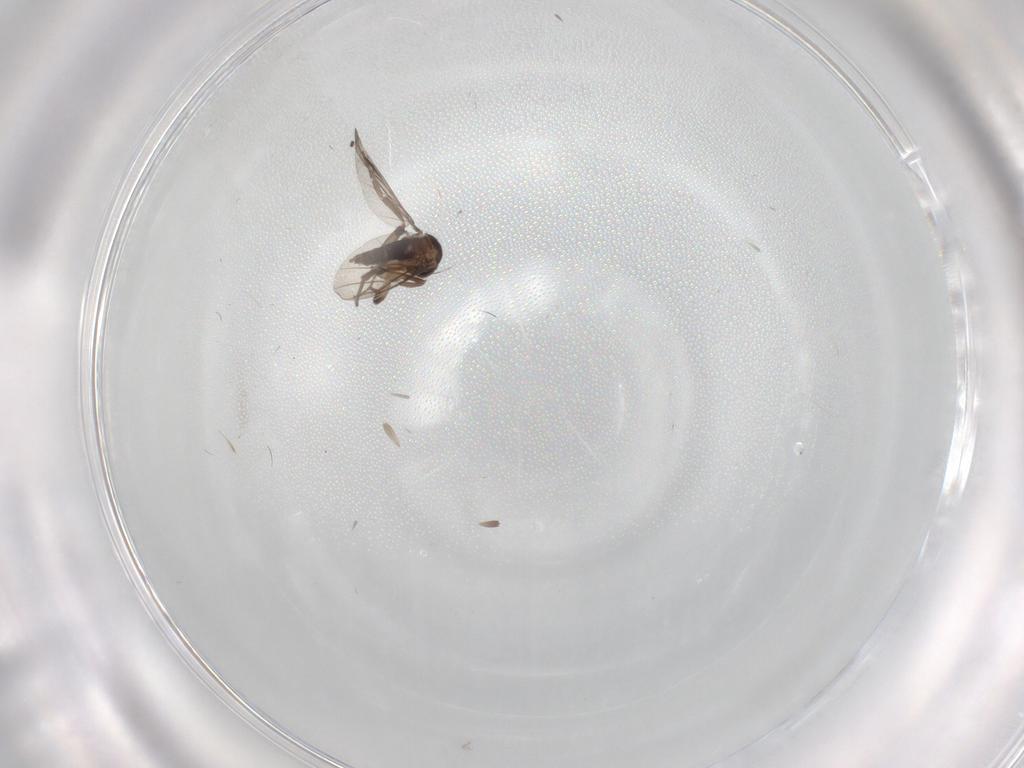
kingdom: Animalia
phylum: Arthropoda
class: Insecta
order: Diptera
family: Phoridae
